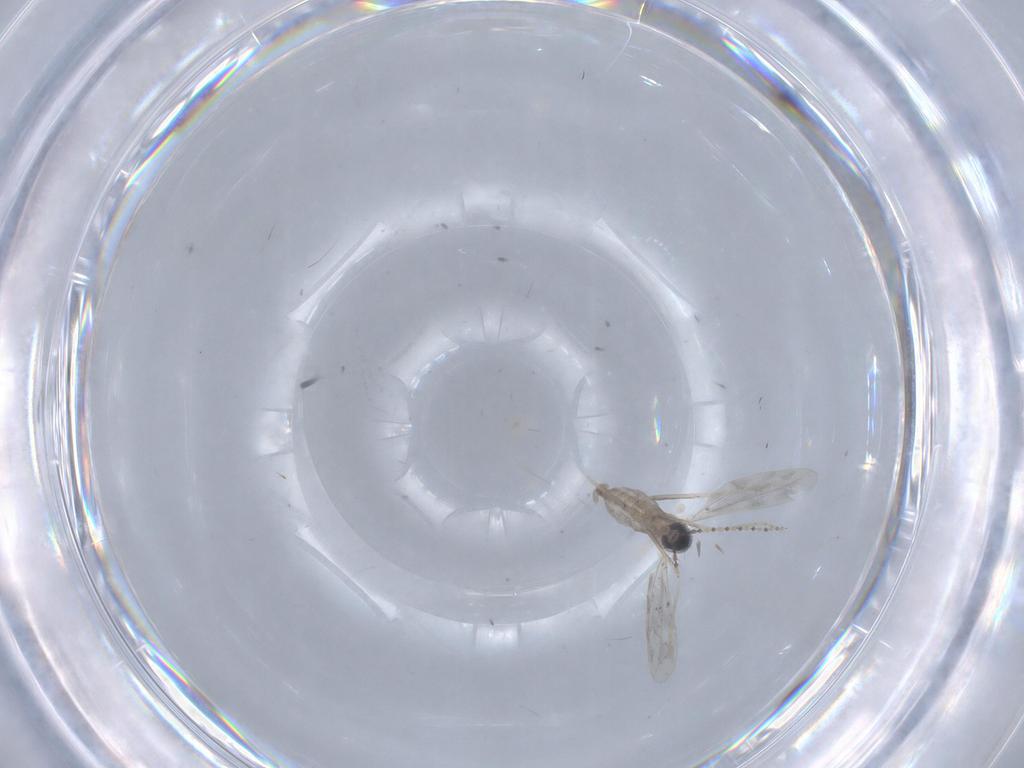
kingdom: Animalia
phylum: Arthropoda
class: Insecta
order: Diptera
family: Cecidomyiidae
